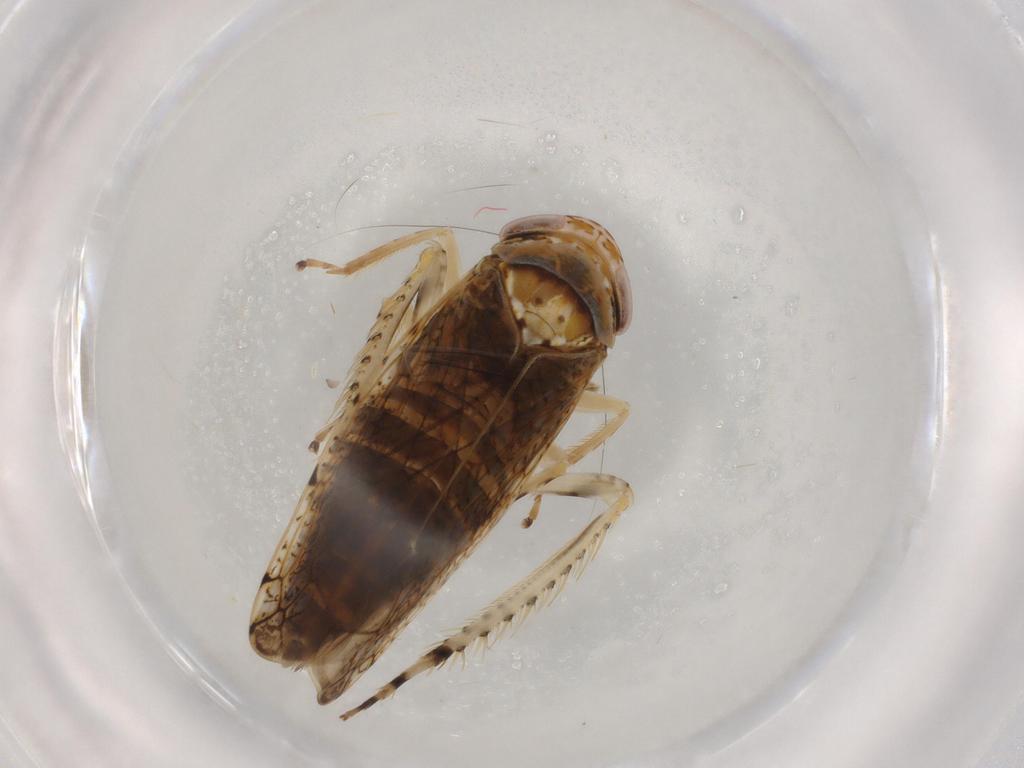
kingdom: Animalia
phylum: Arthropoda
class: Insecta
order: Hemiptera
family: Cicadellidae
